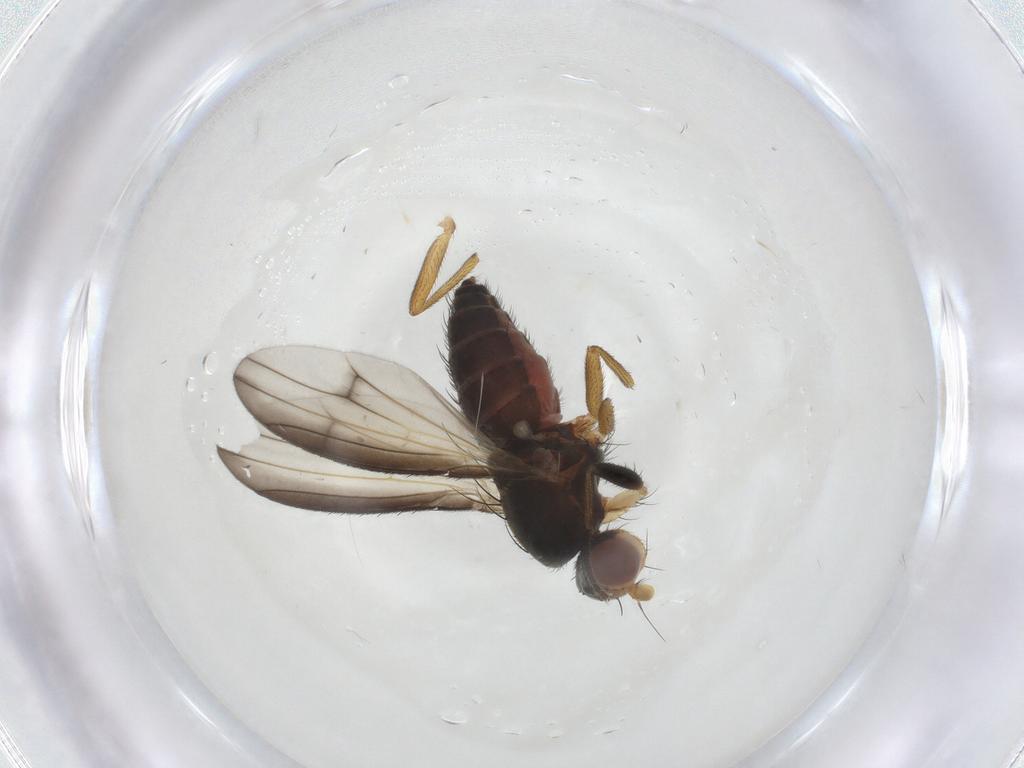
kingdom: Animalia
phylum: Arthropoda
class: Insecta
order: Diptera
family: Heleomyzidae
